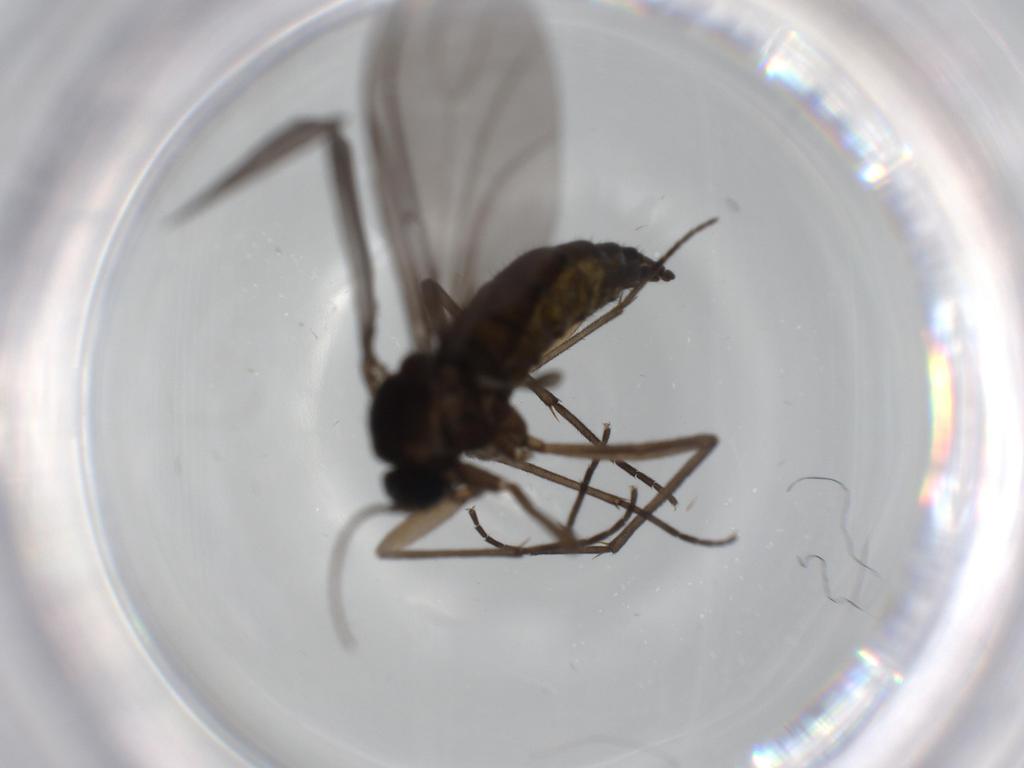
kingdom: Animalia
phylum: Arthropoda
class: Insecta
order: Diptera
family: Sciaridae
